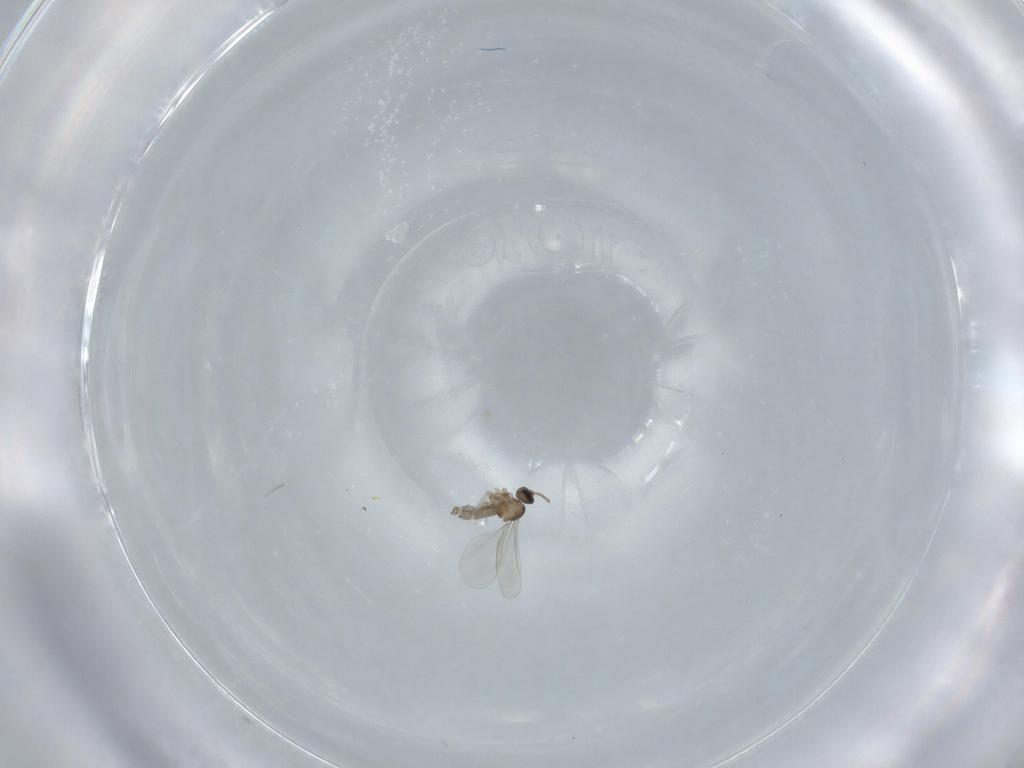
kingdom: Animalia
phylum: Arthropoda
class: Insecta
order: Diptera
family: Cecidomyiidae
